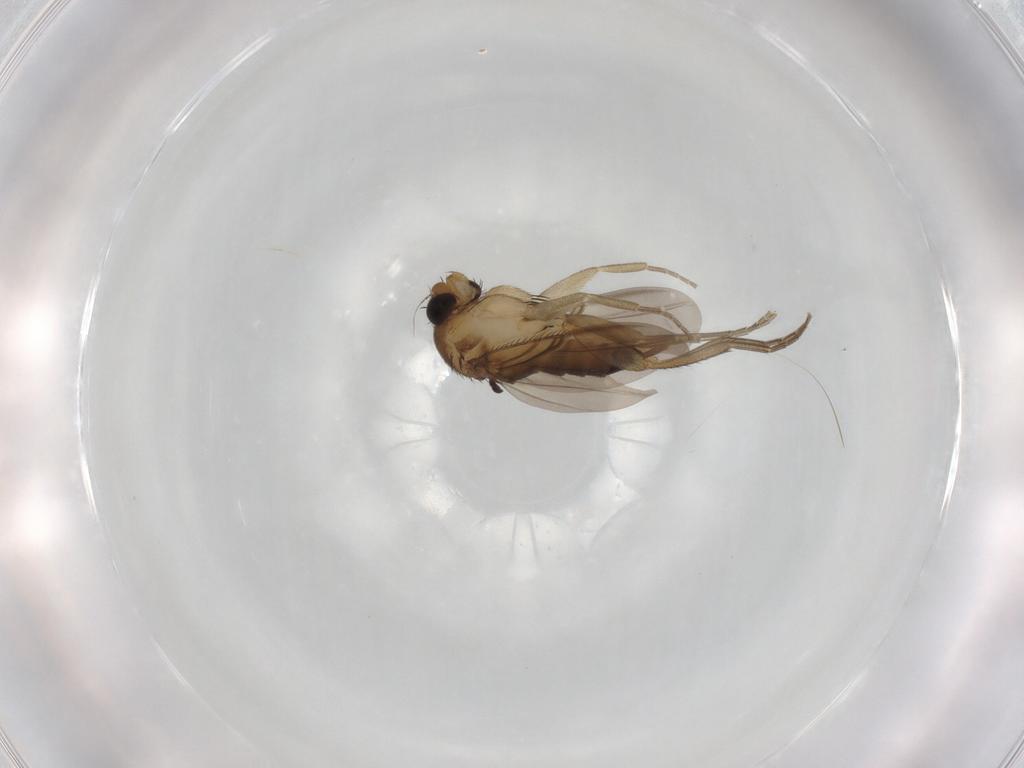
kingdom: Animalia
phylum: Arthropoda
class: Insecta
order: Diptera
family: Phoridae
